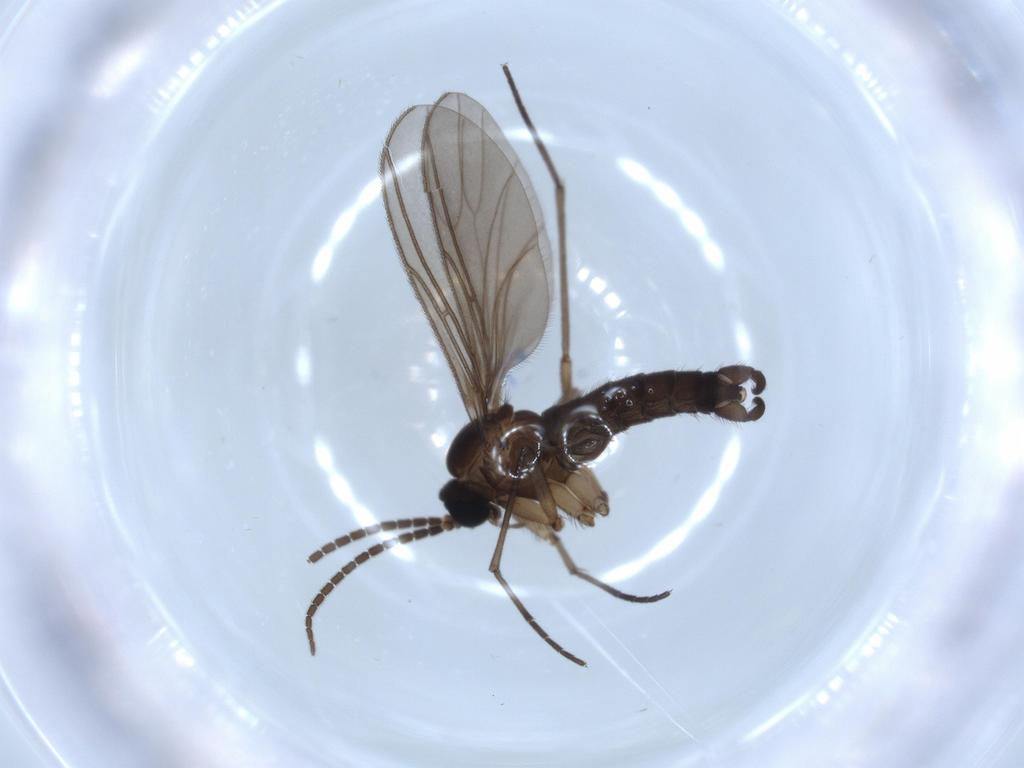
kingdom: Animalia
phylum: Arthropoda
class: Insecta
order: Diptera
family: Sciaridae
